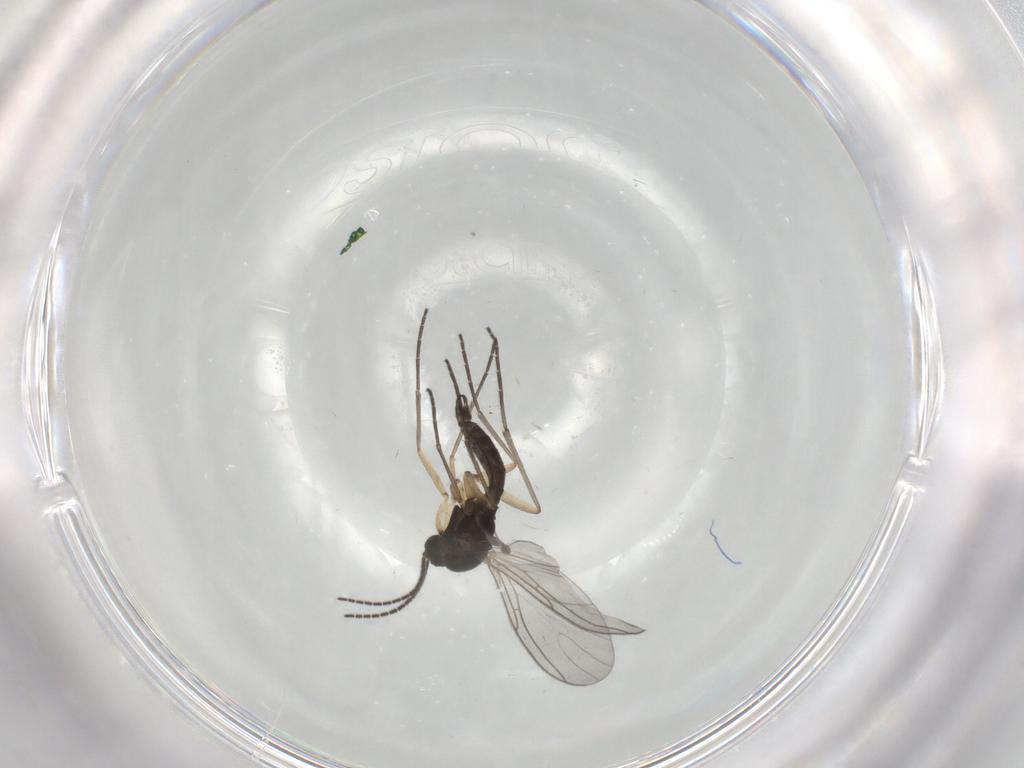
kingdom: Animalia
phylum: Arthropoda
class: Insecta
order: Diptera
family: Sciaridae
